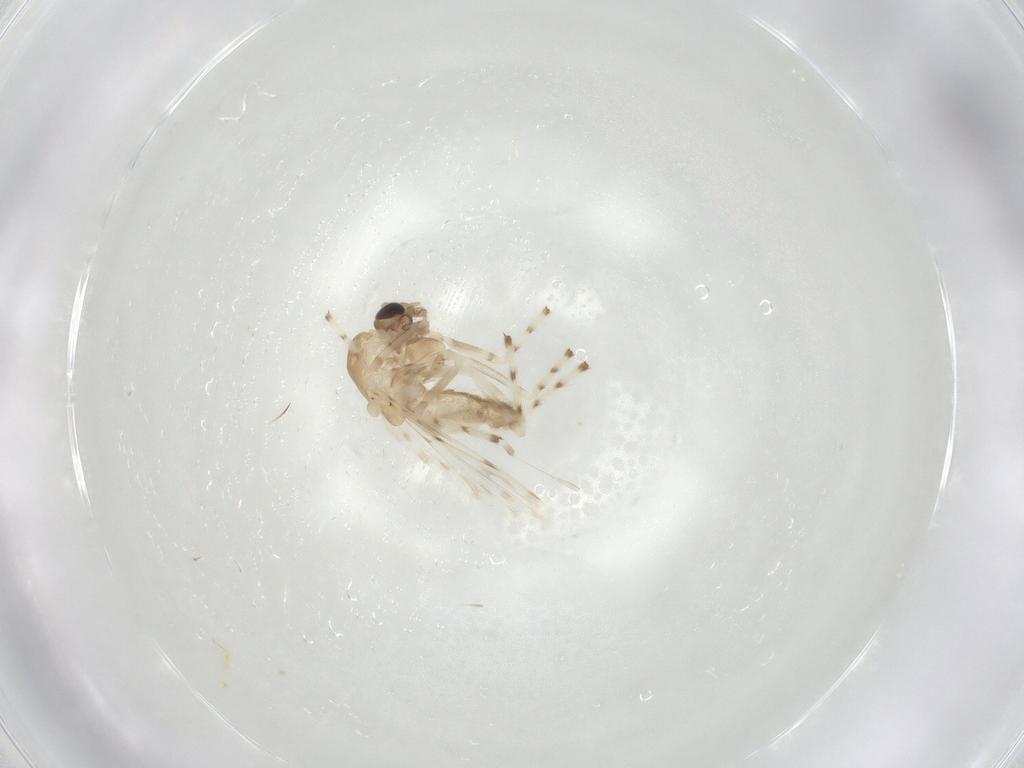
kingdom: Animalia
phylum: Arthropoda
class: Insecta
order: Diptera
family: Chironomidae
